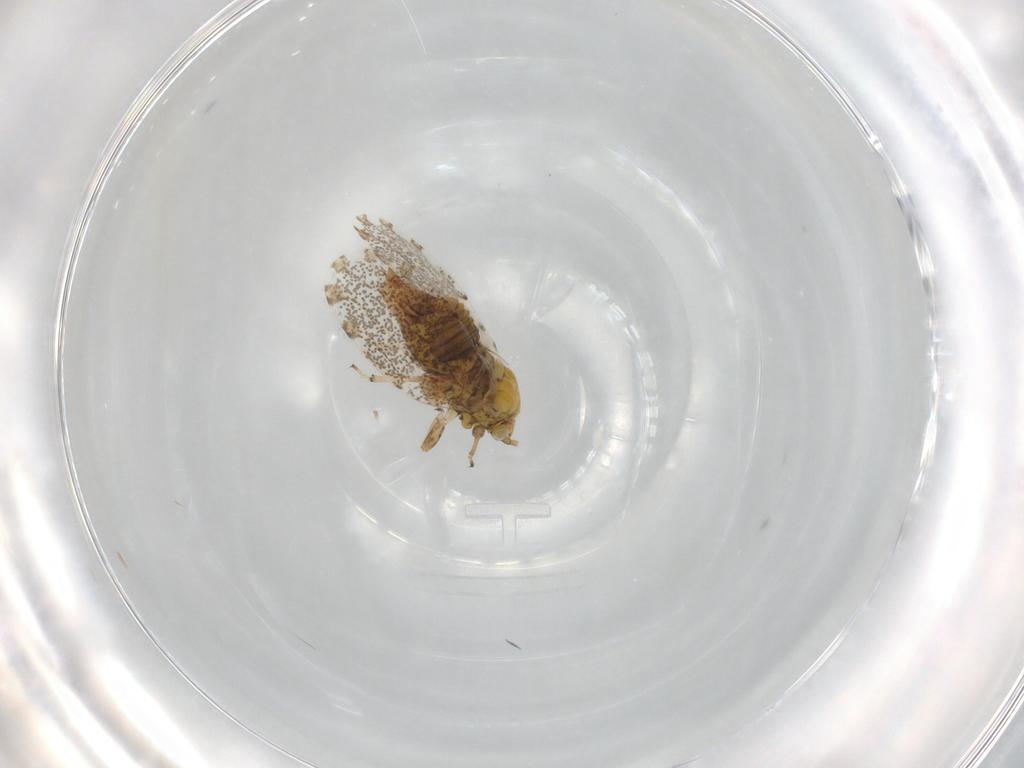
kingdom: Animalia
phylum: Arthropoda
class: Insecta
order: Hemiptera
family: Psylloidea_incertae_sedis
